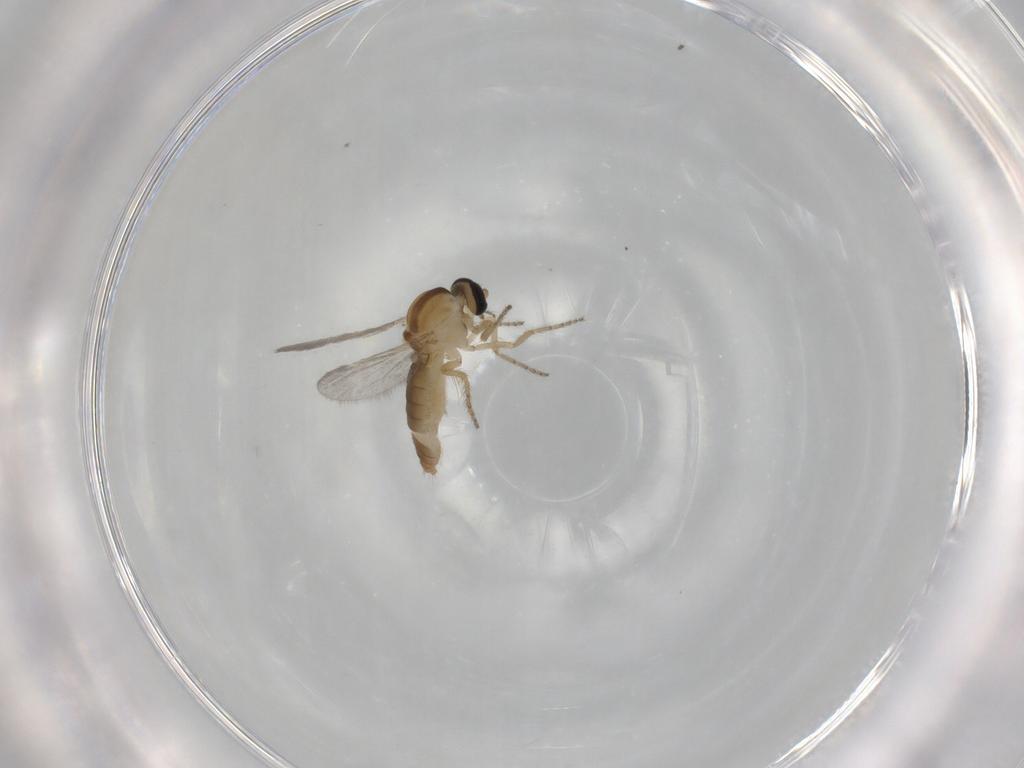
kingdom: Animalia
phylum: Arthropoda
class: Insecta
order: Diptera
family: Ceratopogonidae
